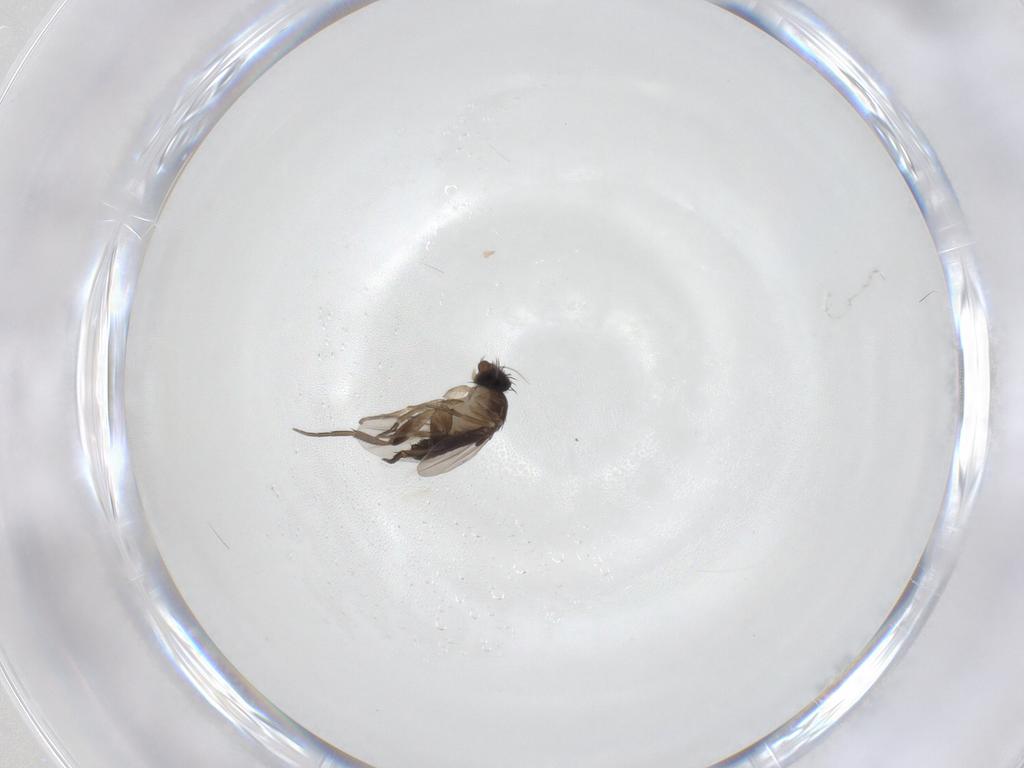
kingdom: Animalia
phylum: Arthropoda
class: Insecta
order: Diptera
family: Phoridae
